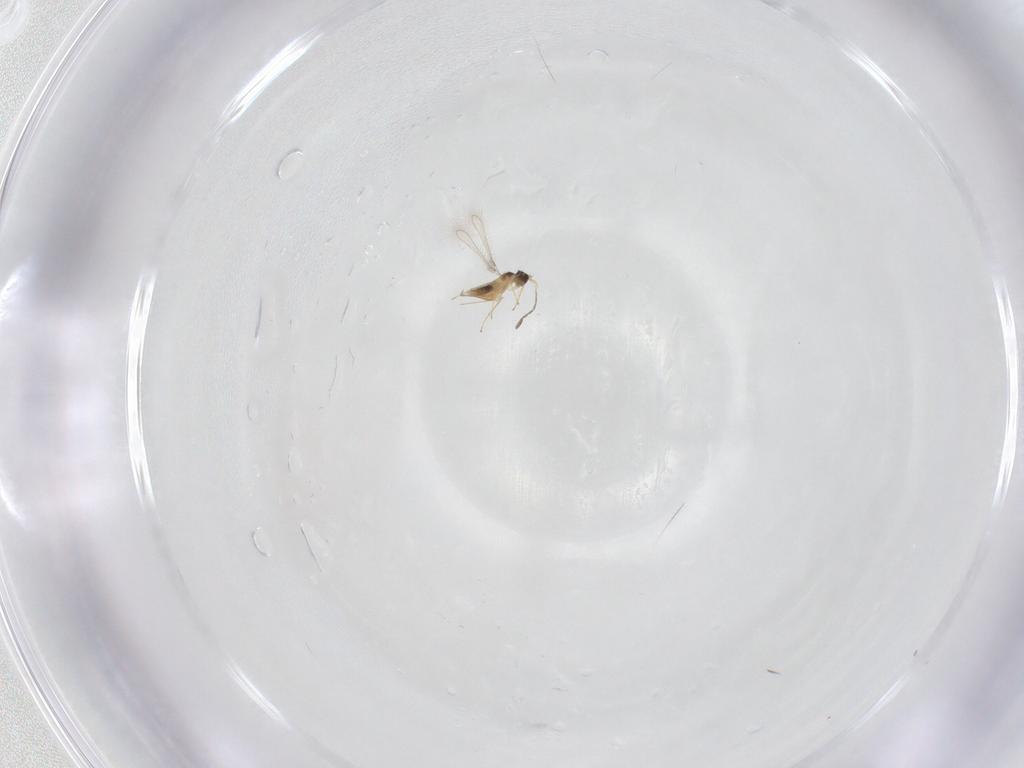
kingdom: Animalia
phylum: Arthropoda
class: Insecta
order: Hymenoptera
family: Mymaridae
